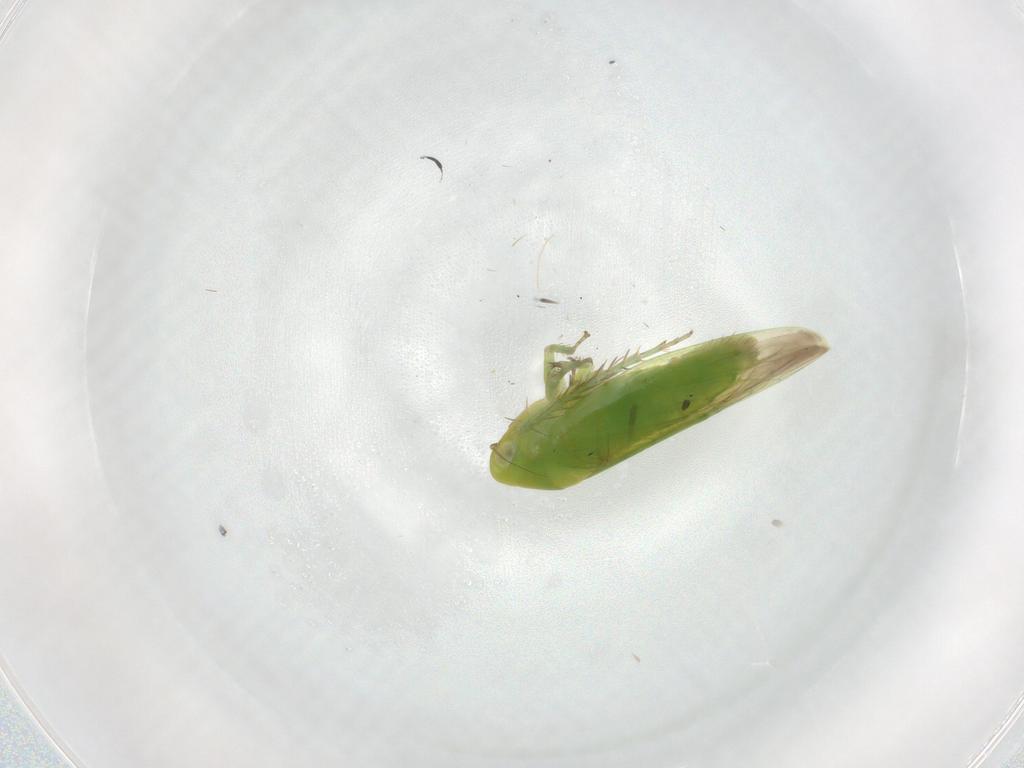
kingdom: Animalia
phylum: Arthropoda
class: Insecta
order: Hemiptera
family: Cicadellidae
